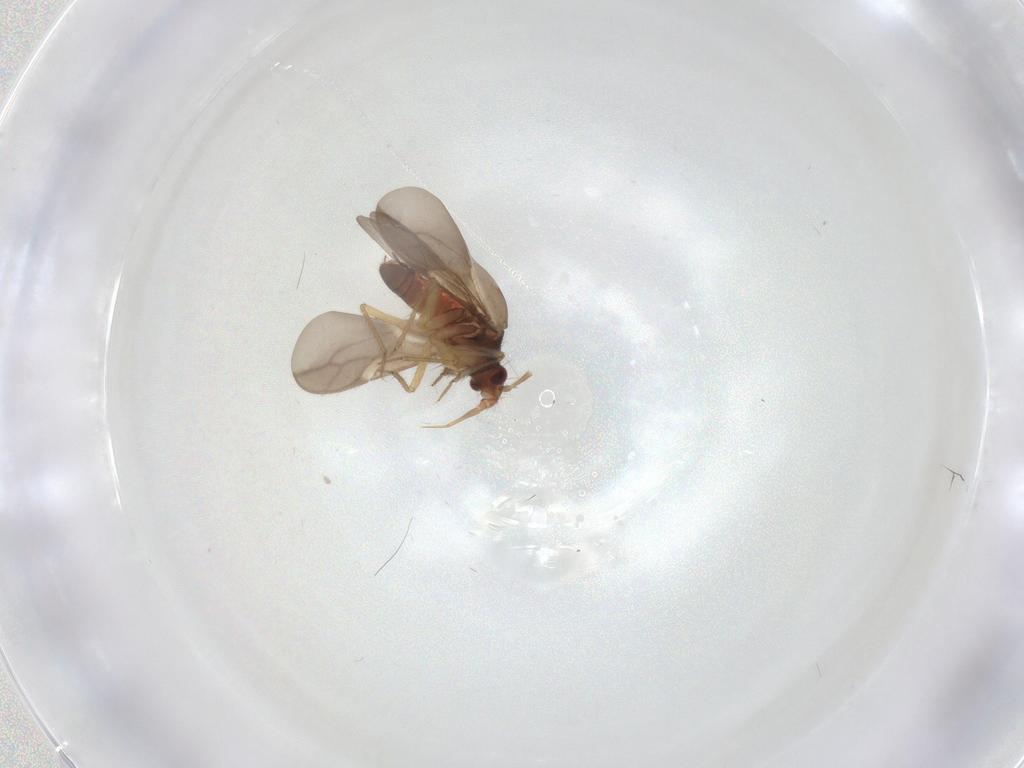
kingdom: Animalia
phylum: Arthropoda
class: Insecta
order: Hemiptera
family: Ceratocombidae
